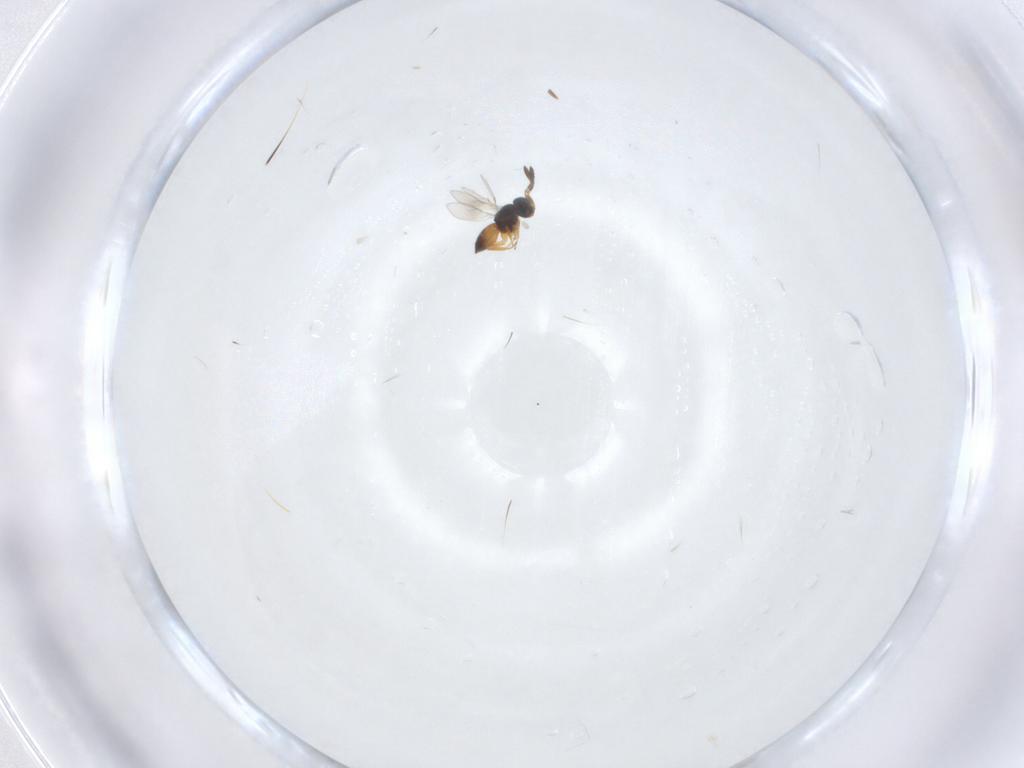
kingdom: Animalia
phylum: Arthropoda
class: Insecta
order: Hymenoptera
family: Scelionidae
